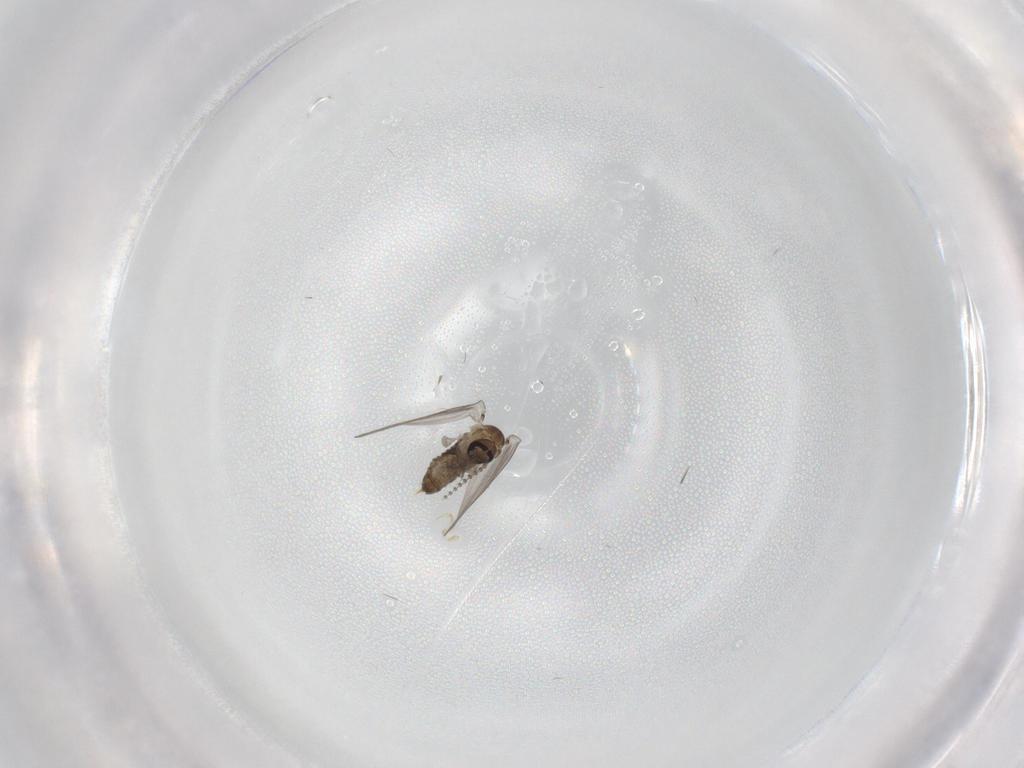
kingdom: Animalia
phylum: Arthropoda
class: Insecta
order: Diptera
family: Cecidomyiidae
